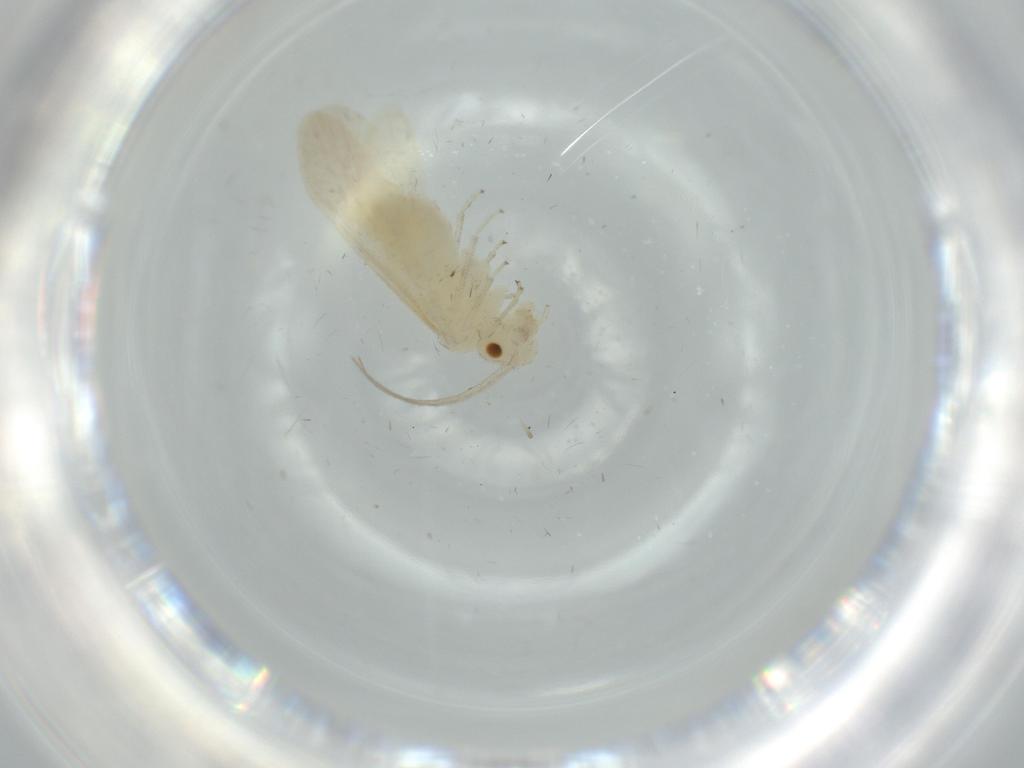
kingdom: Animalia
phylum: Arthropoda
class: Insecta
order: Psocodea
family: Caeciliusidae
